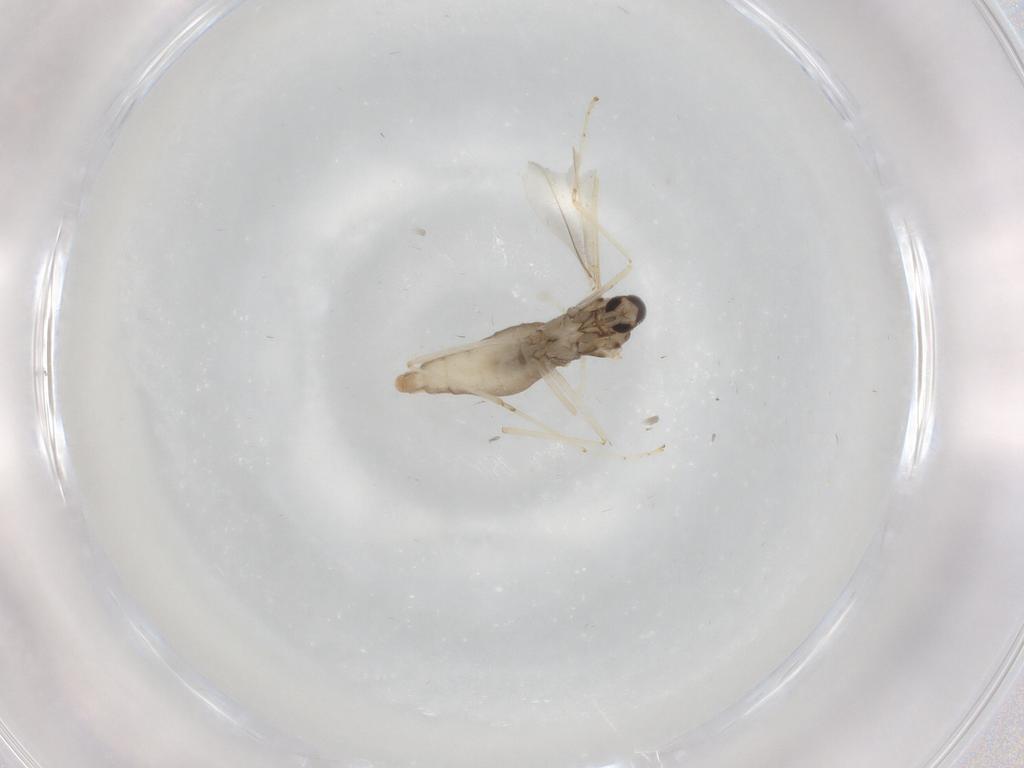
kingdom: Animalia
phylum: Arthropoda
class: Insecta
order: Diptera
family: Cecidomyiidae
